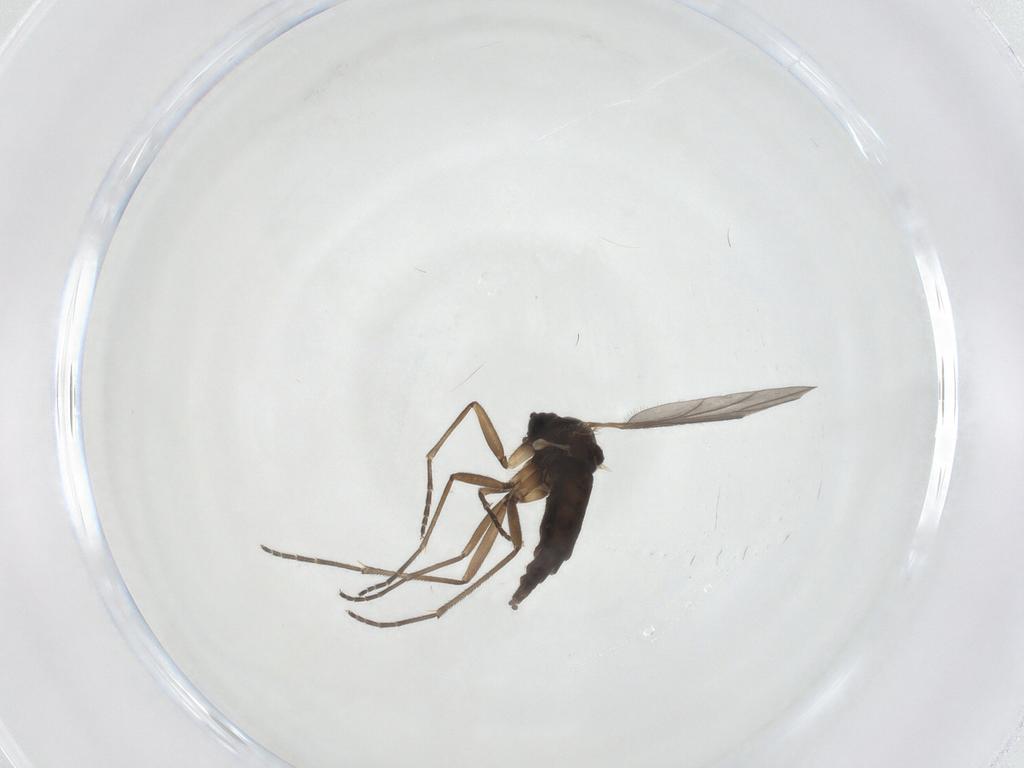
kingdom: Animalia
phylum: Arthropoda
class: Insecta
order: Diptera
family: Sciaridae
